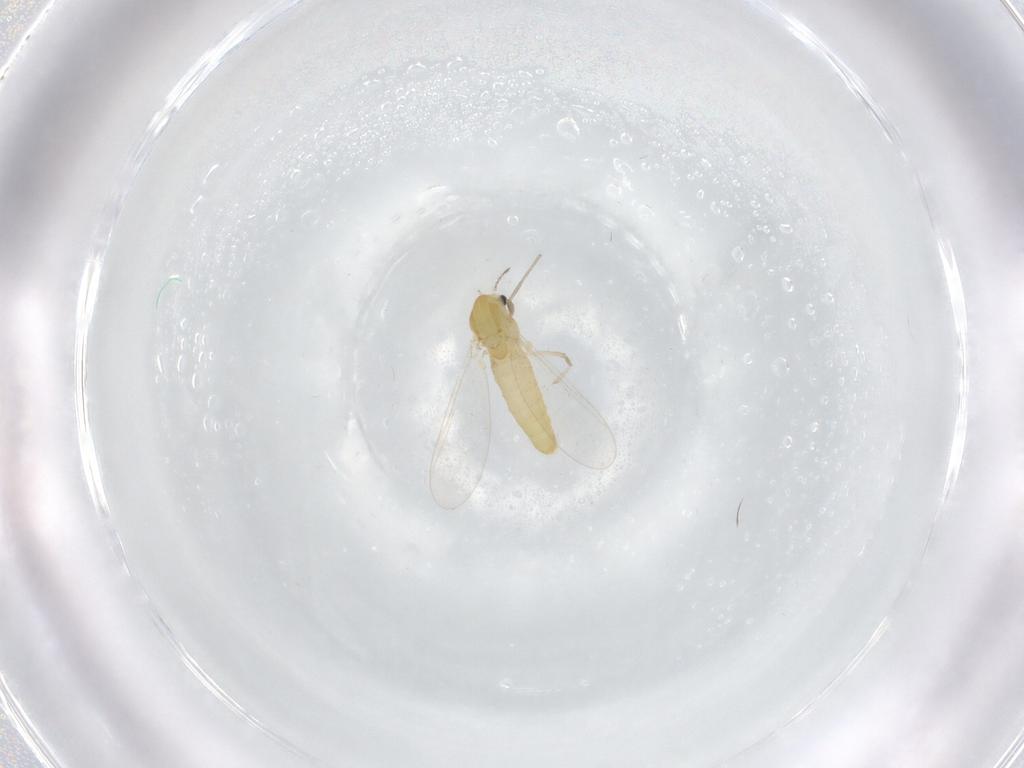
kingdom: Animalia
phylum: Arthropoda
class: Insecta
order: Diptera
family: Chironomidae
